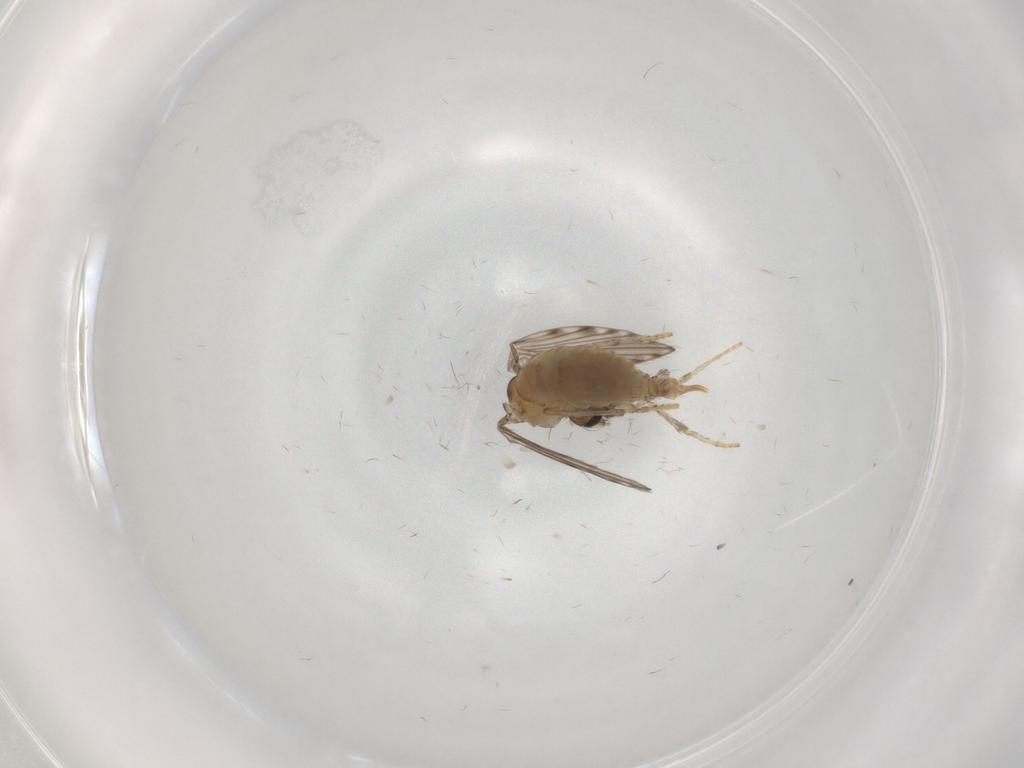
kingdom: Animalia
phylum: Arthropoda
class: Insecta
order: Diptera
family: Psychodidae
